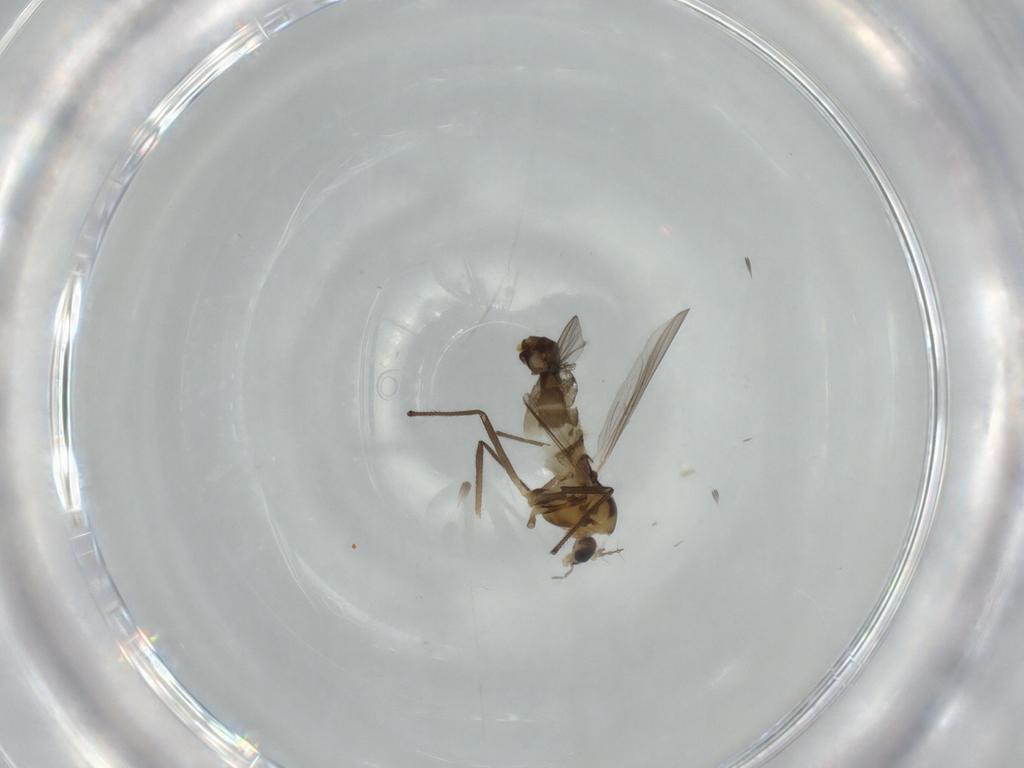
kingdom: Animalia
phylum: Arthropoda
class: Insecta
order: Diptera
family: Chironomidae
